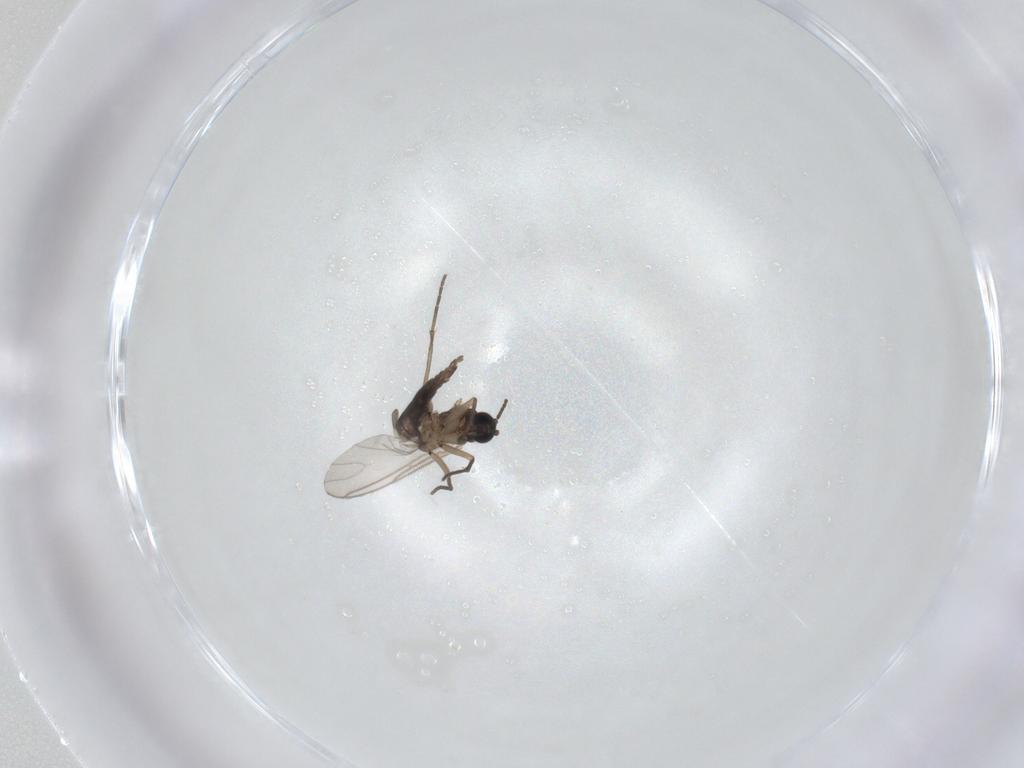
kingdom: Animalia
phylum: Arthropoda
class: Insecta
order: Diptera
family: Sciaridae
